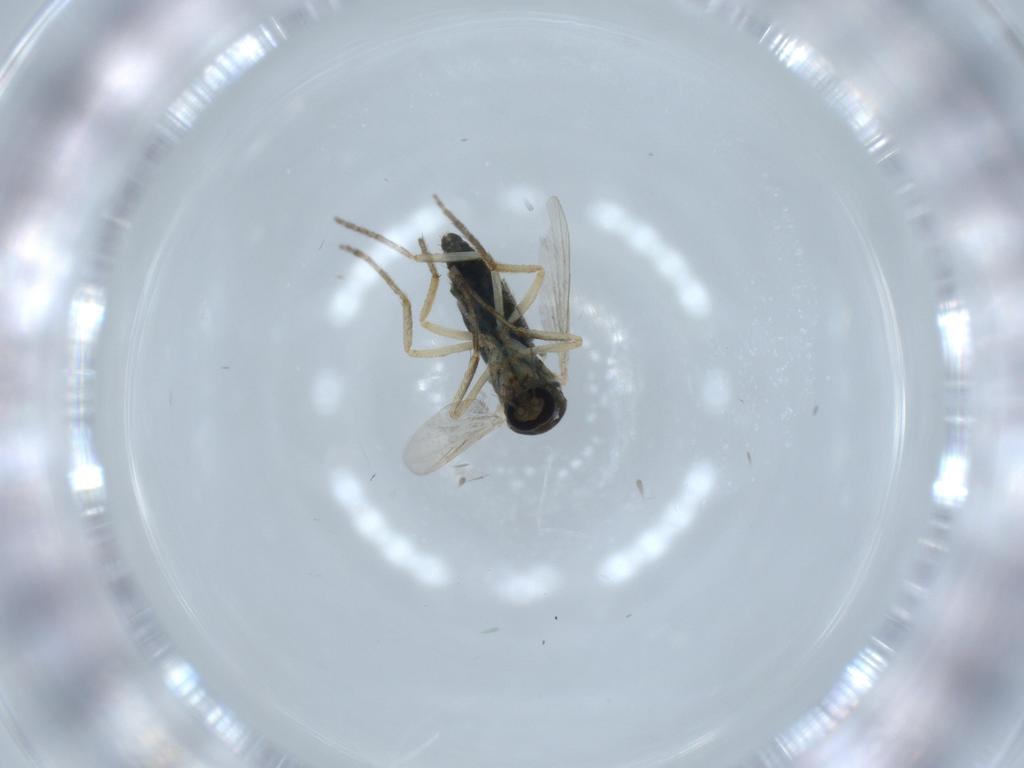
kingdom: Animalia
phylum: Arthropoda
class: Insecta
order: Diptera
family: Ceratopogonidae
